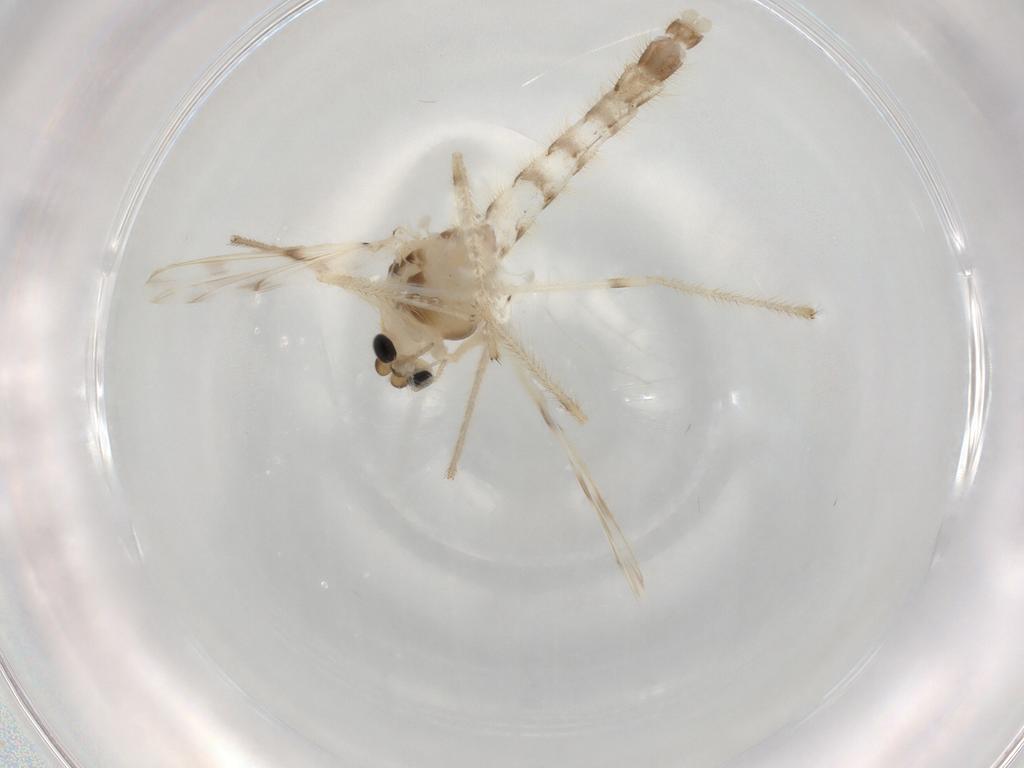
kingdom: Animalia
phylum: Arthropoda
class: Insecta
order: Diptera
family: Chironomidae
